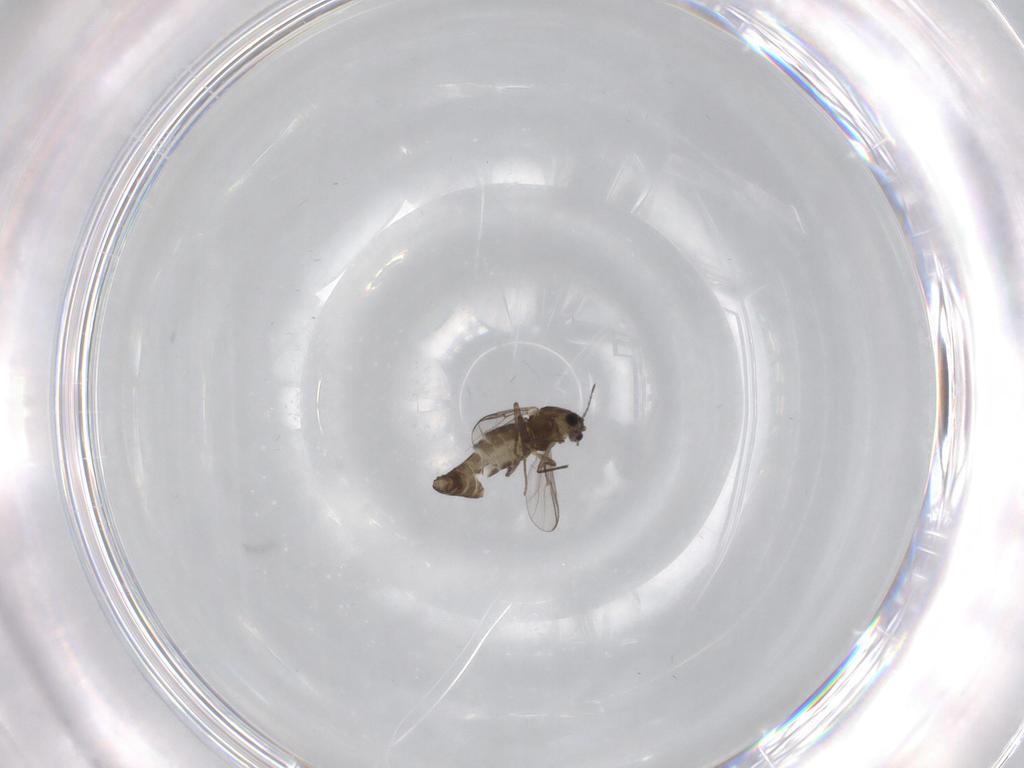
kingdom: Animalia
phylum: Arthropoda
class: Insecta
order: Diptera
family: Chironomidae
